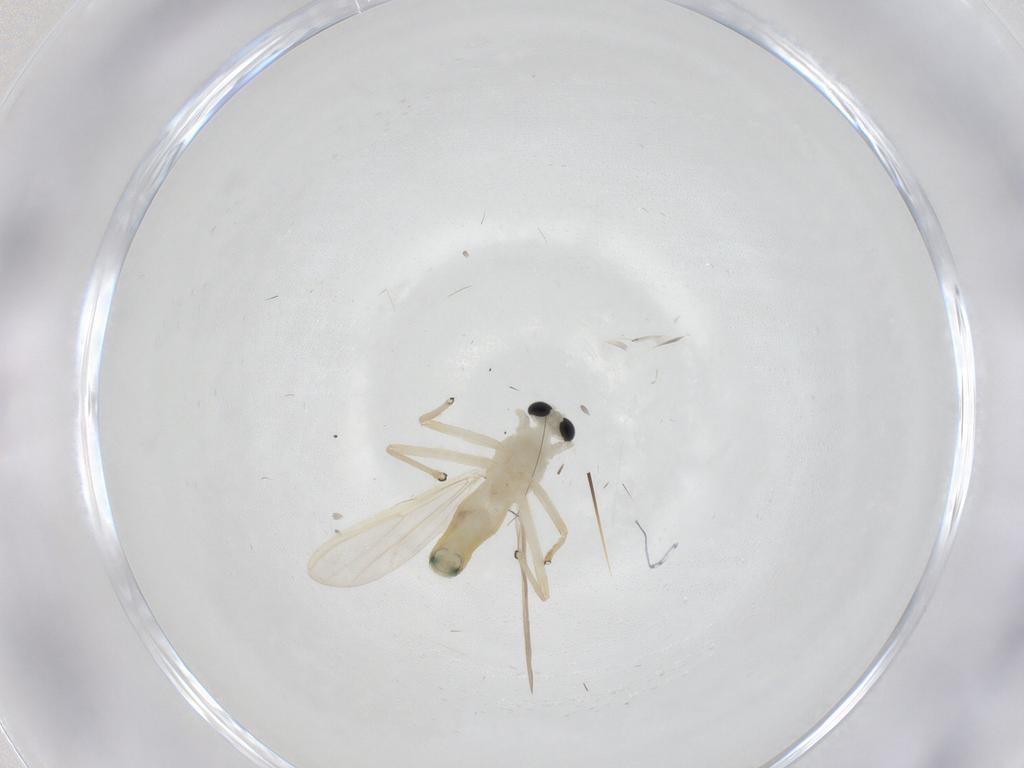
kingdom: Animalia
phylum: Arthropoda
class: Insecta
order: Diptera
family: Chironomidae
